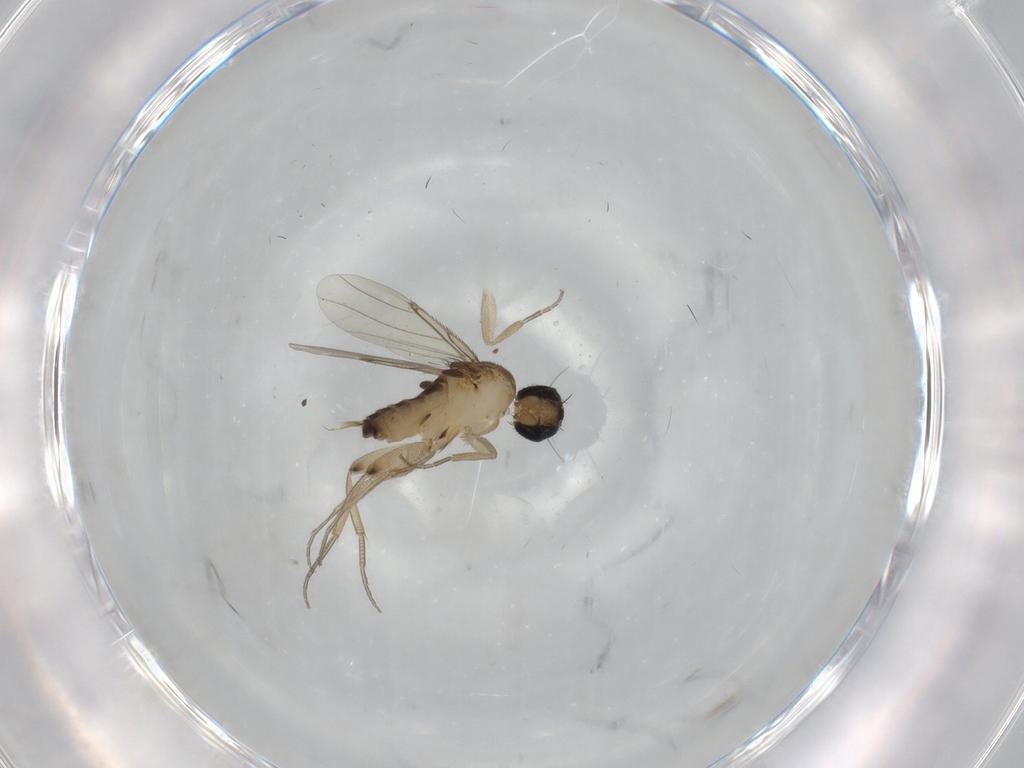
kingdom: Animalia
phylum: Arthropoda
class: Insecta
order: Diptera
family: Phoridae
